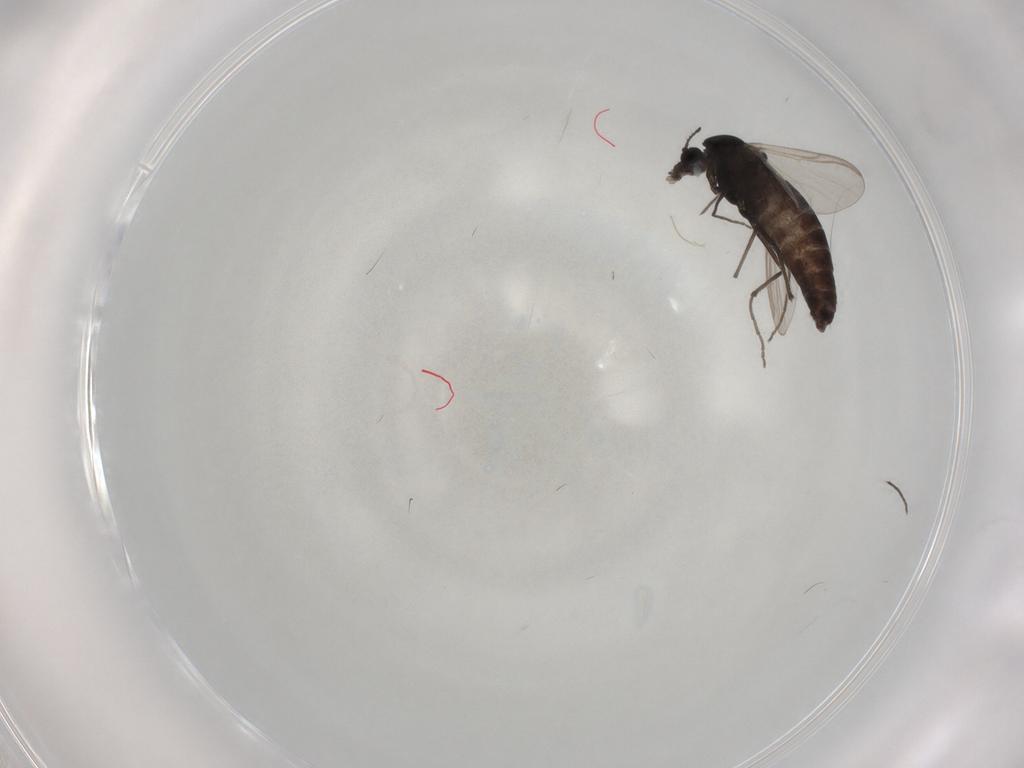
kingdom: Animalia
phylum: Arthropoda
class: Insecta
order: Diptera
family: Chironomidae
